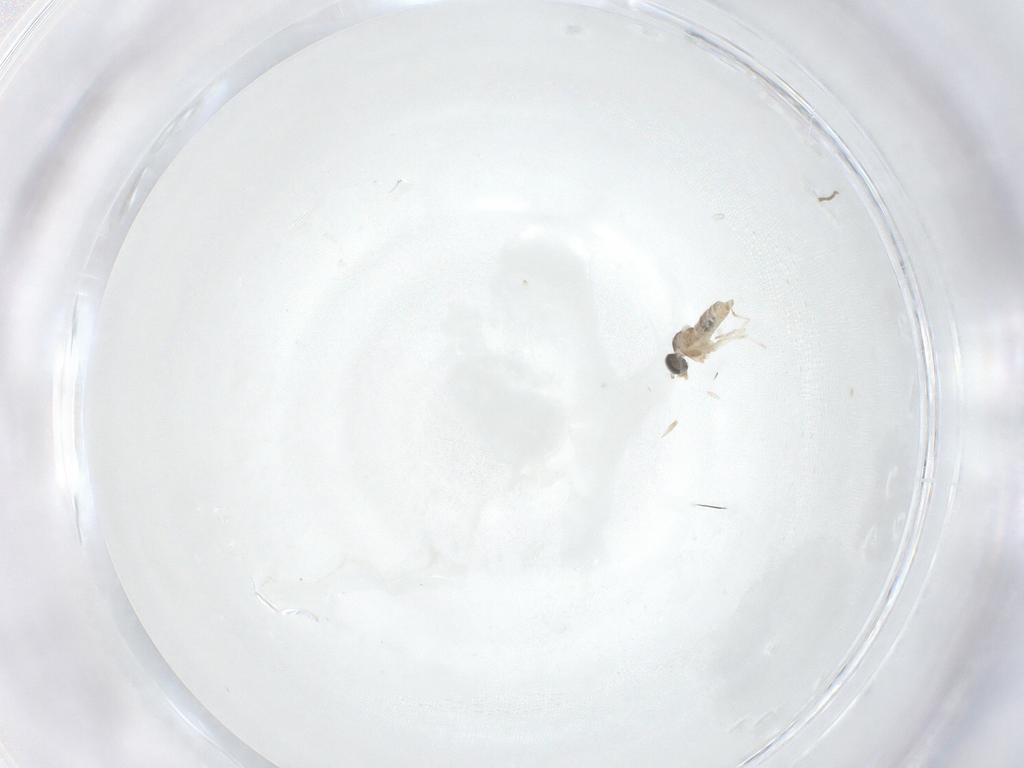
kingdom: Animalia
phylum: Arthropoda
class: Insecta
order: Diptera
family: Cecidomyiidae
